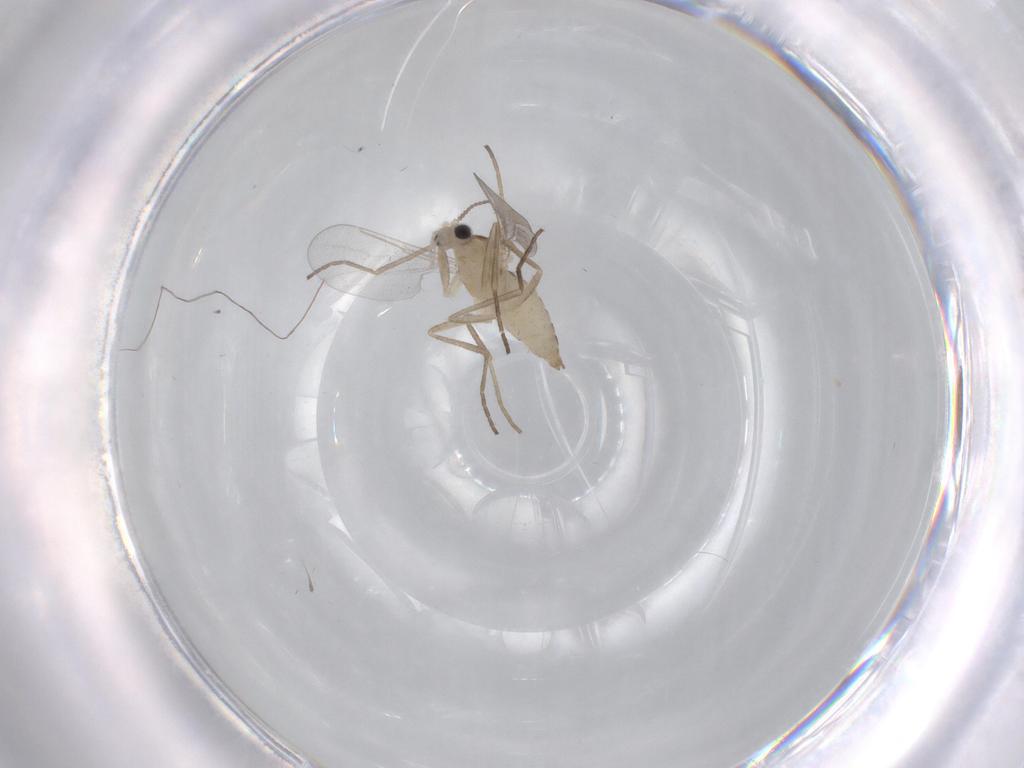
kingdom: Animalia
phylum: Arthropoda
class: Insecta
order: Diptera
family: Cecidomyiidae
